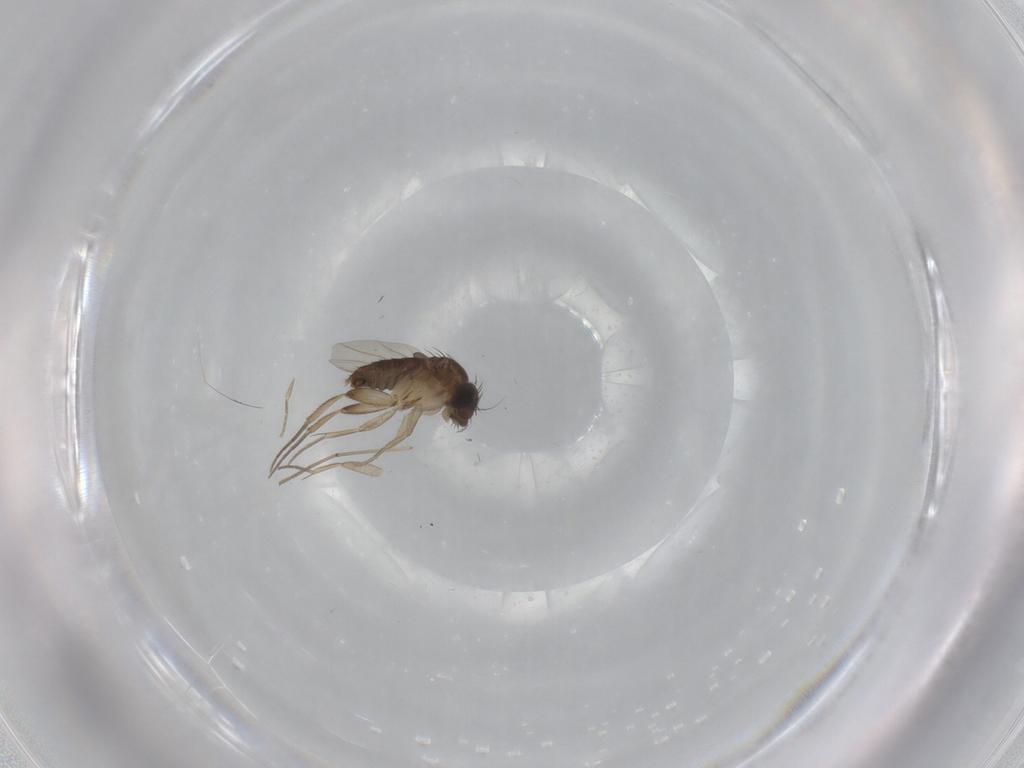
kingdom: Animalia
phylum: Arthropoda
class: Insecta
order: Diptera
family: Phoridae
